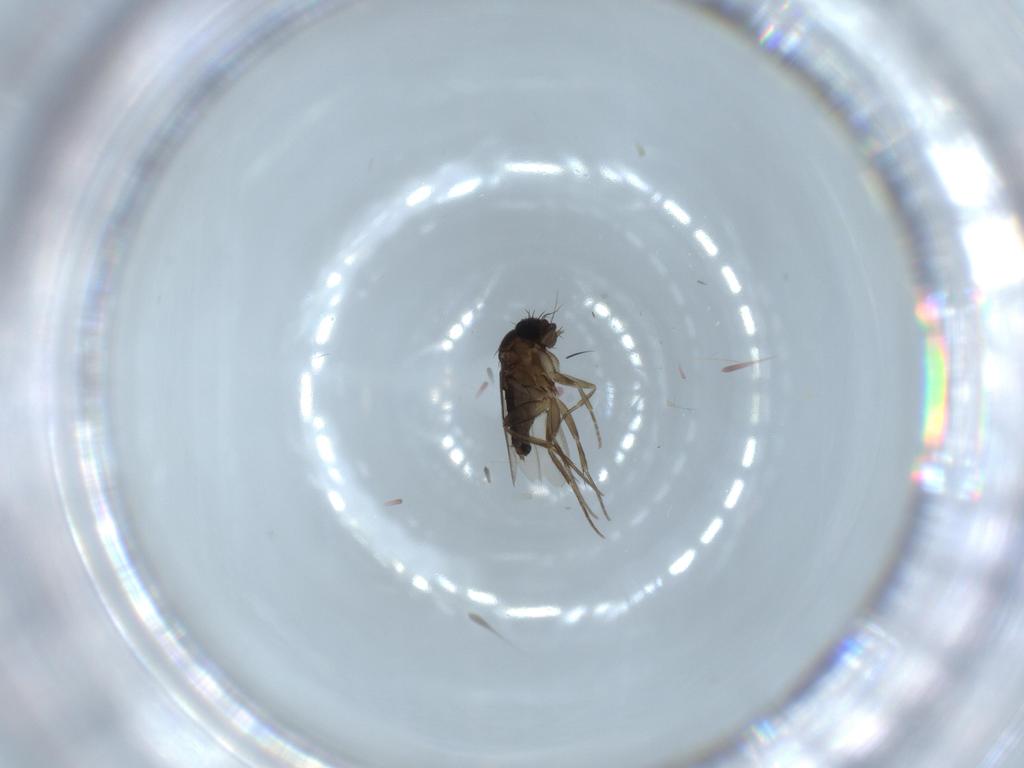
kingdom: Animalia
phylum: Arthropoda
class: Insecta
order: Diptera
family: Phoridae
